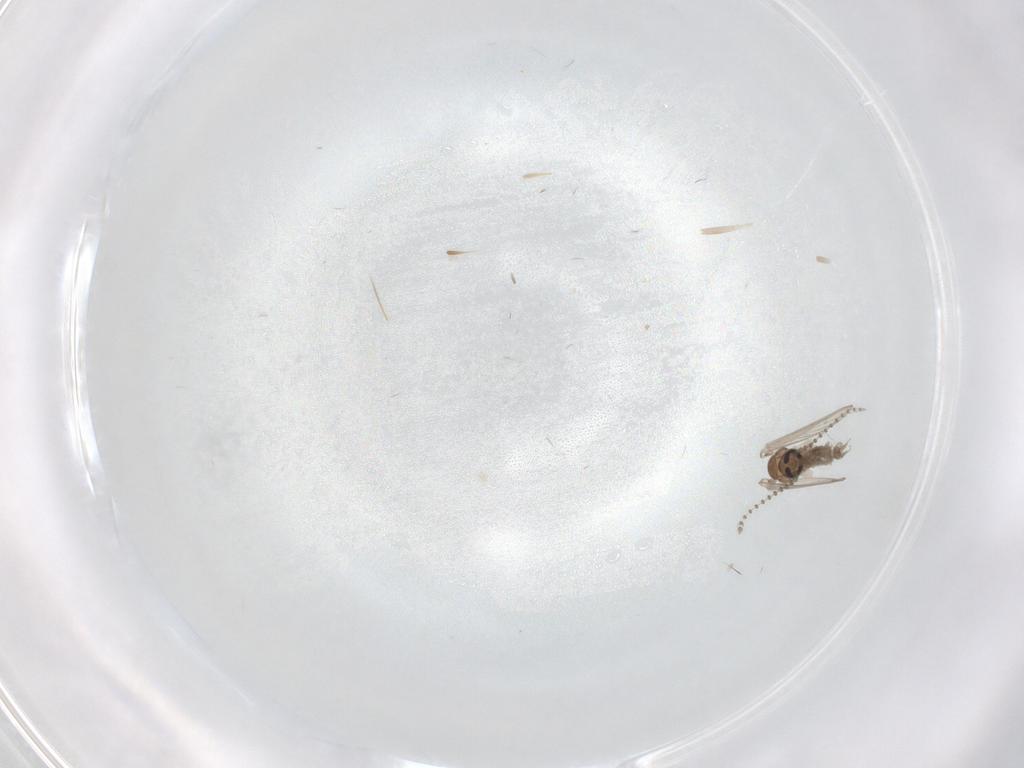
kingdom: Animalia
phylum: Arthropoda
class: Insecta
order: Diptera
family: Psychodidae
